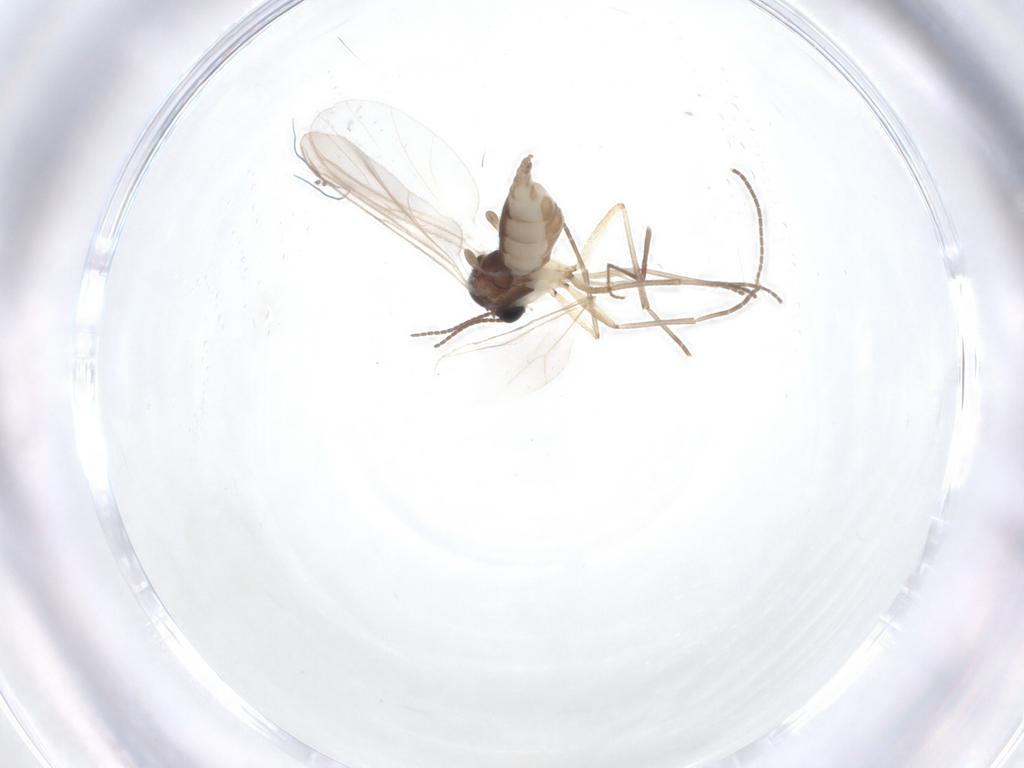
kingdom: Animalia
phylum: Arthropoda
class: Insecta
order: Diptera
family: Sciaridae
